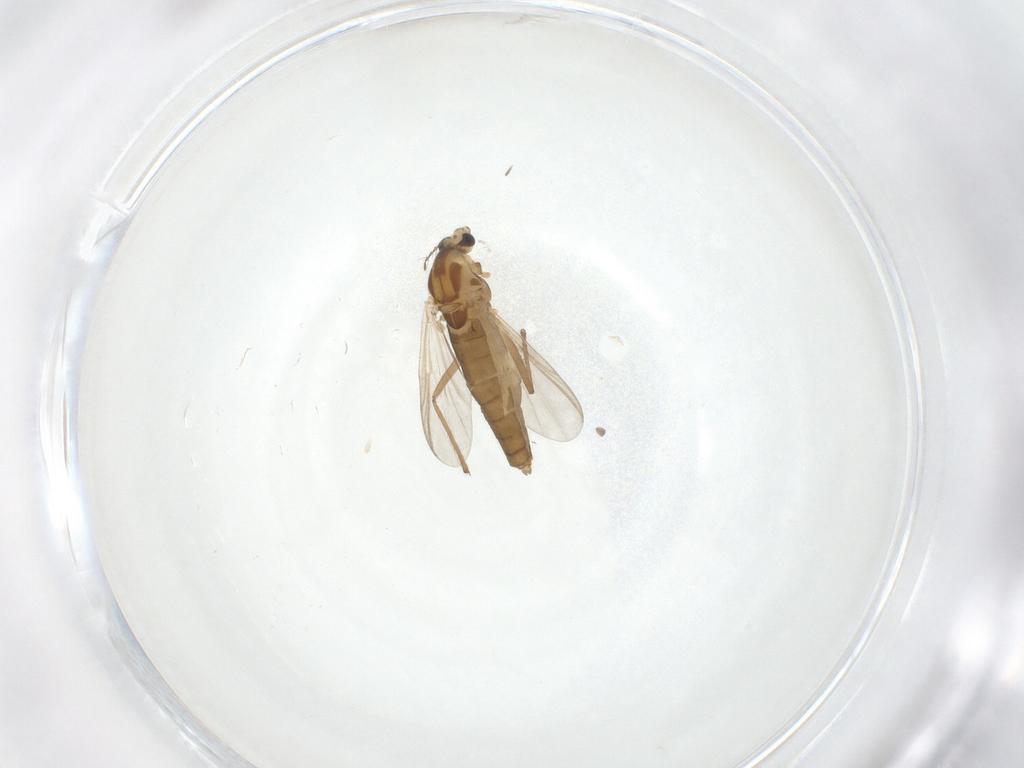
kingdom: Animalia
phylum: Arthropoda
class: Insecta
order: Diptera
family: Chironomidae
